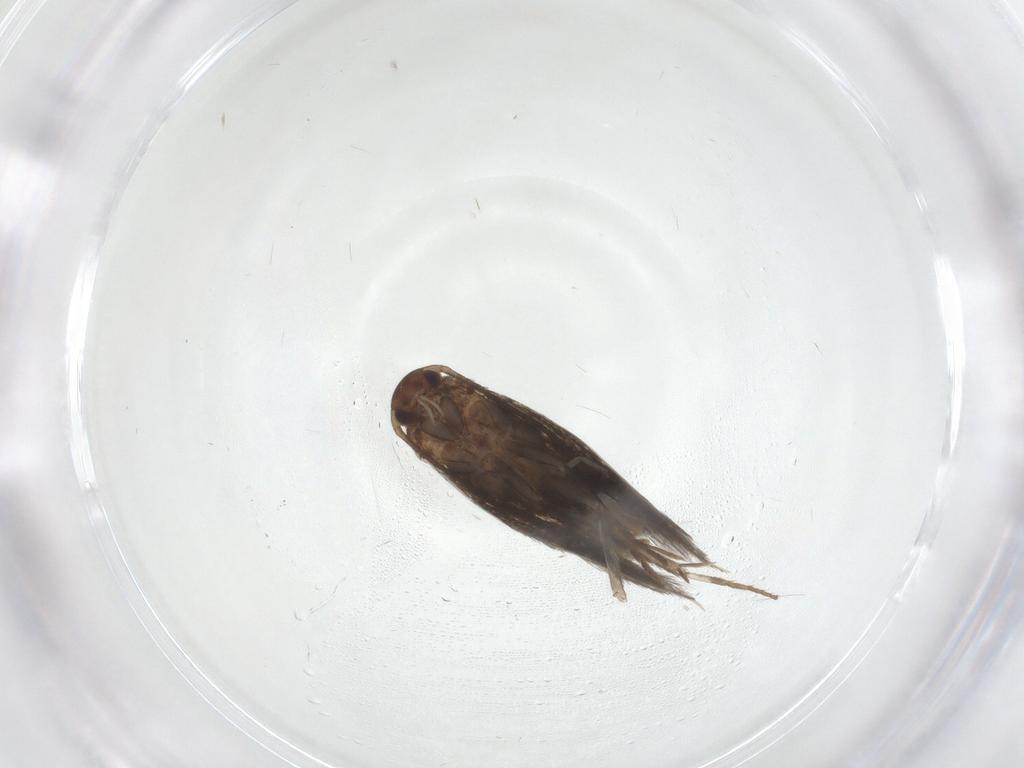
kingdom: Animalia
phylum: Arthropoda
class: Insecta
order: Lepidoptera
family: Elachistidae
